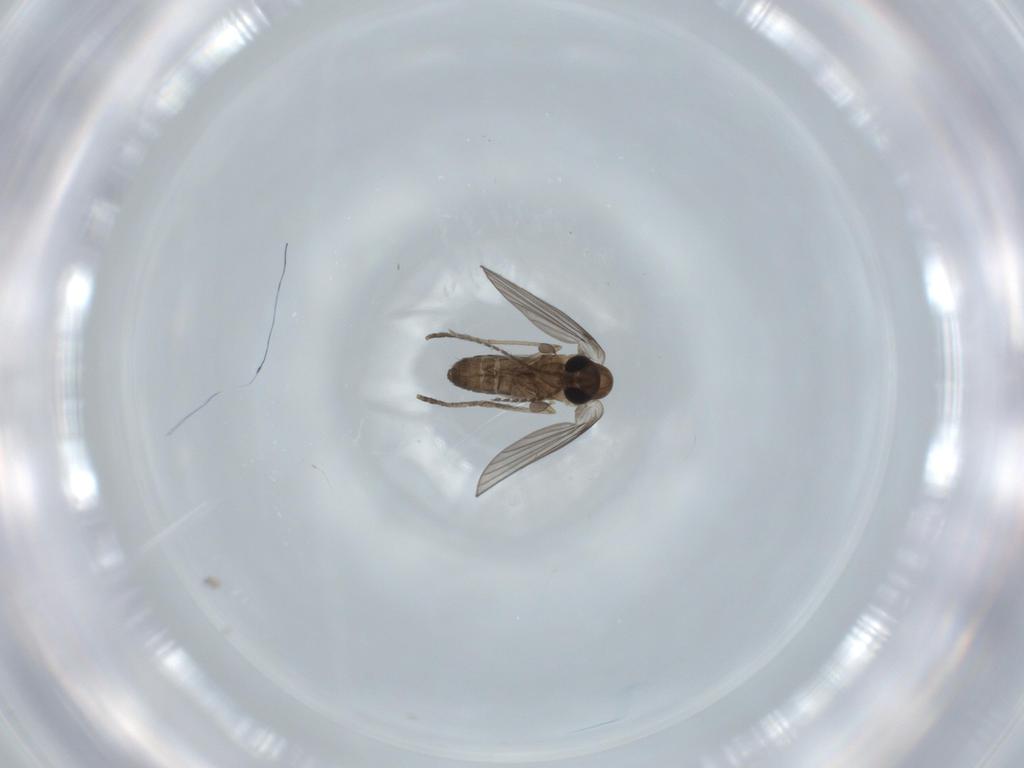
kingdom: Animalia
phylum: Arthropoda
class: Insecta
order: Diptera
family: Psychodidae
